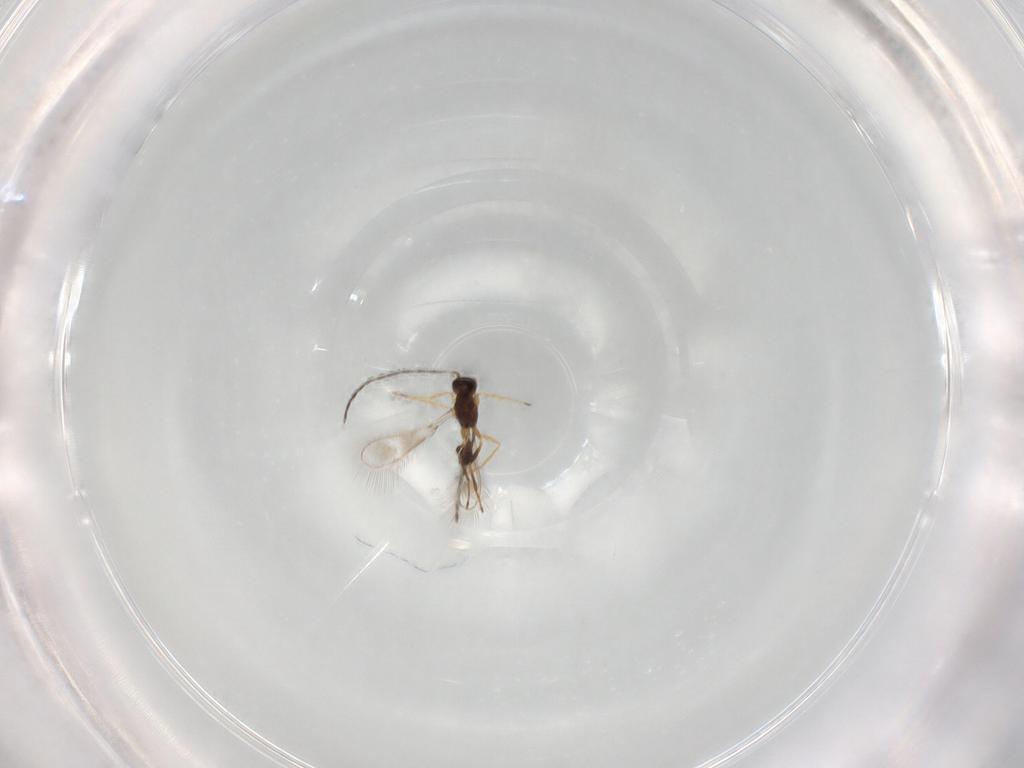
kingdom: Animalia
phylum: Arthropoda
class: Insecta
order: Hymenoptera
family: Mymaridae
